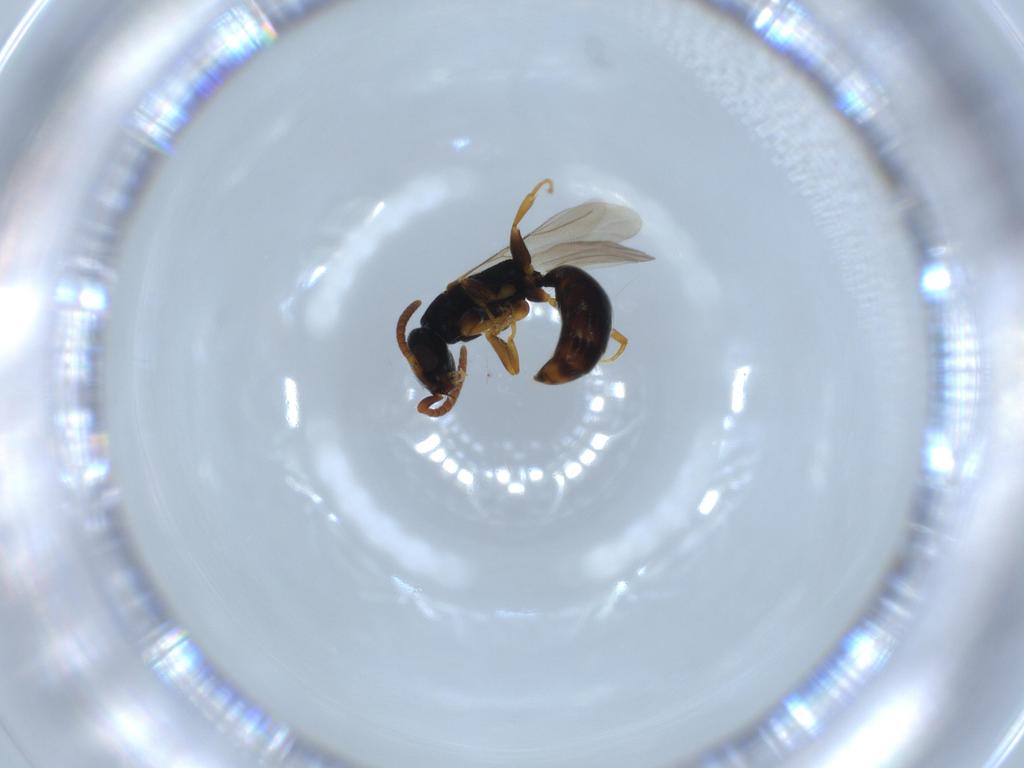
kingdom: Animalia
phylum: Arthropoda
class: Insecta
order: Hymenoptera
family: Bethylidae
